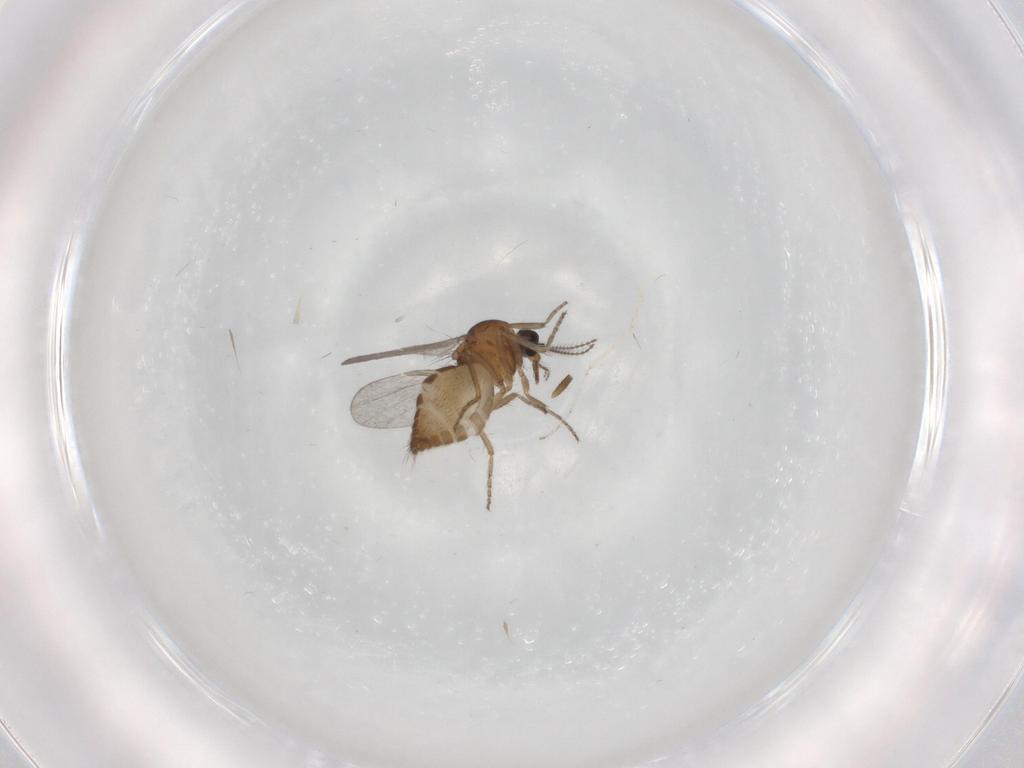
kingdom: Animalia
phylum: Arthropoda
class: Insecta
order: Diptera
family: Ceratopogonidae
